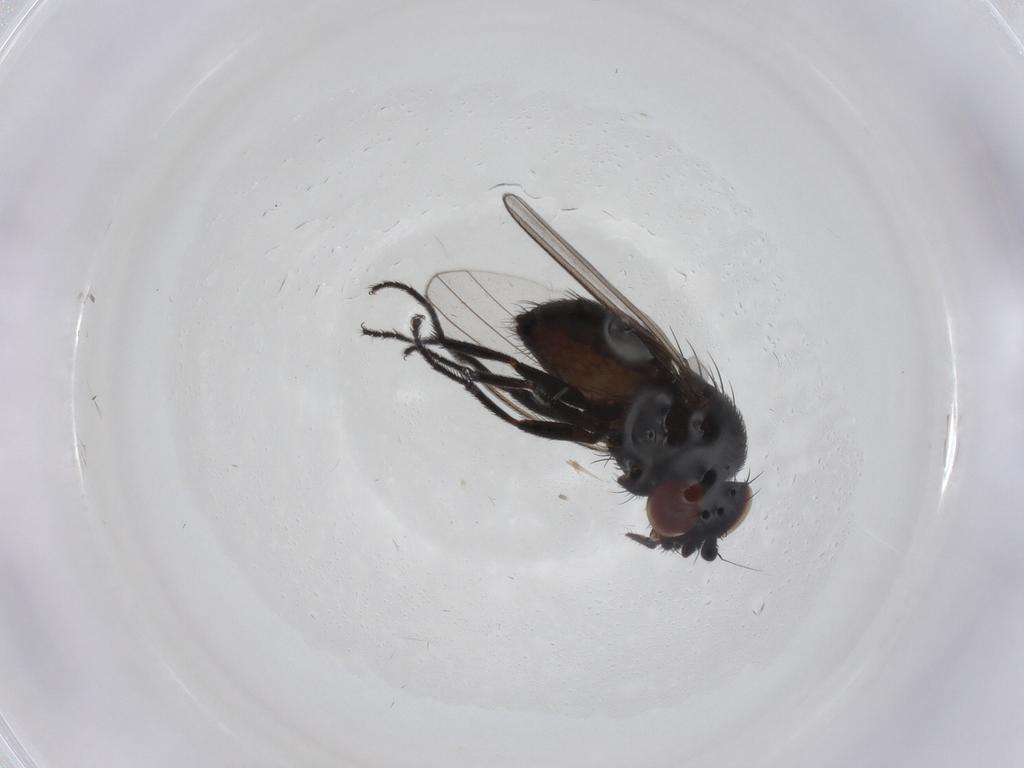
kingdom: Animalia
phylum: Arthropoda
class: Insecta
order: Diptera
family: Milichiidae
